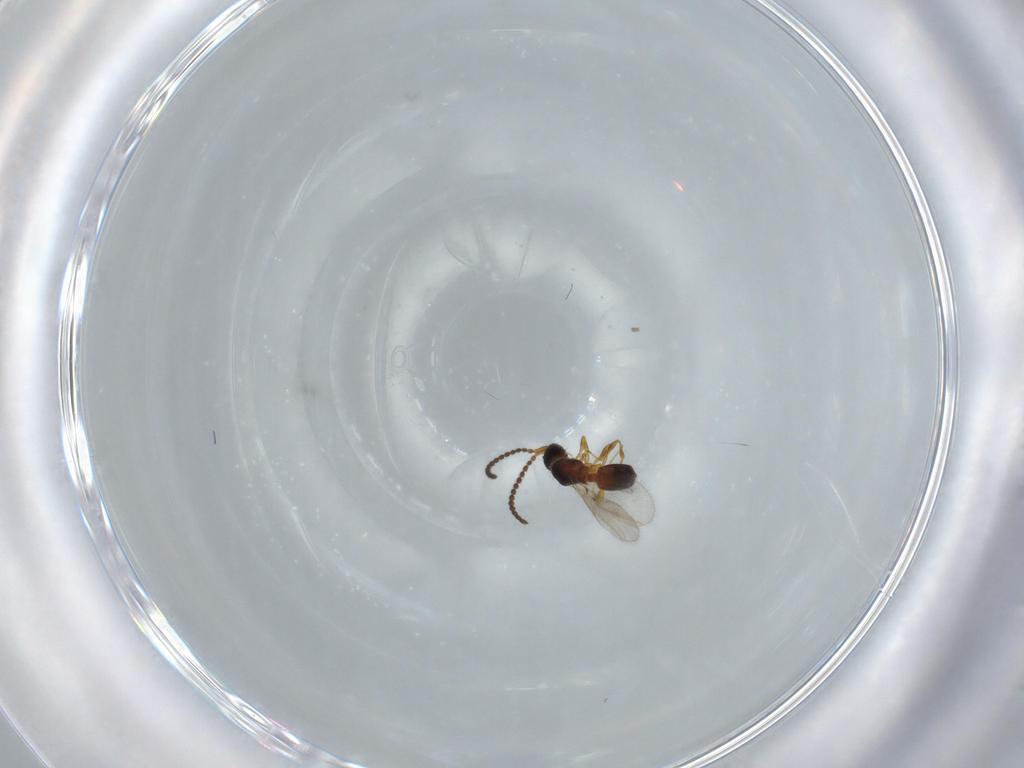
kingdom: Animalia
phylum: Arthropoda
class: Insecta
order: Hymenoptera
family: Diapriidae
